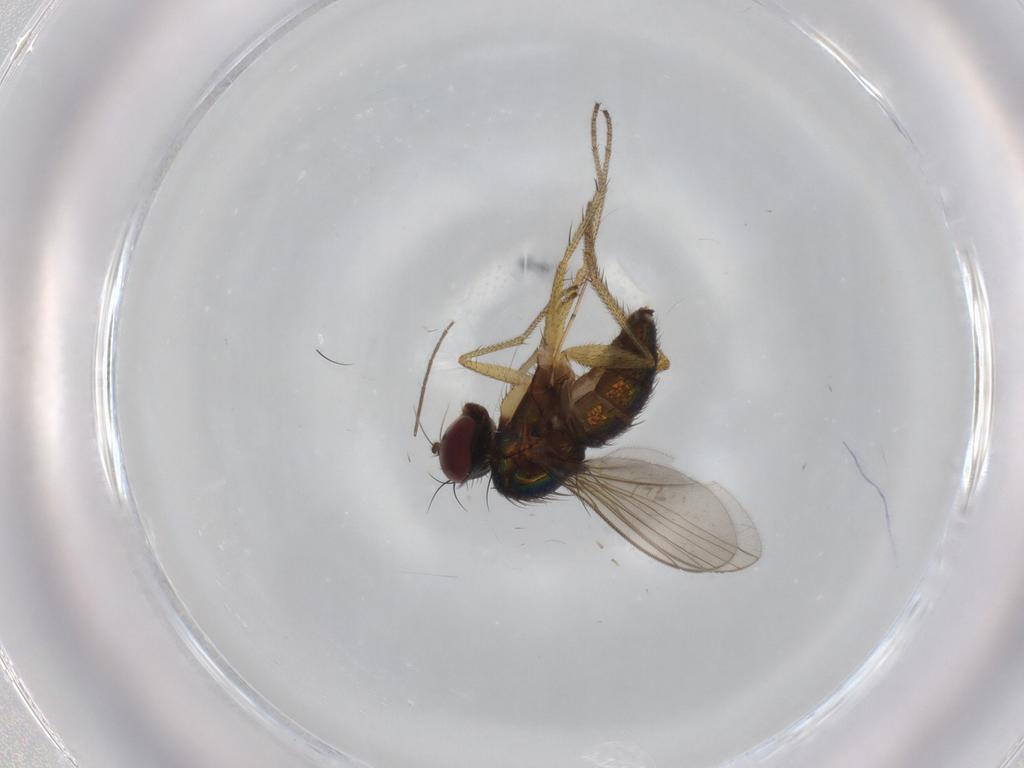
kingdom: Animalia
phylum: Arthropoda
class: Insecta
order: Diptera
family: Dolichopodidae
